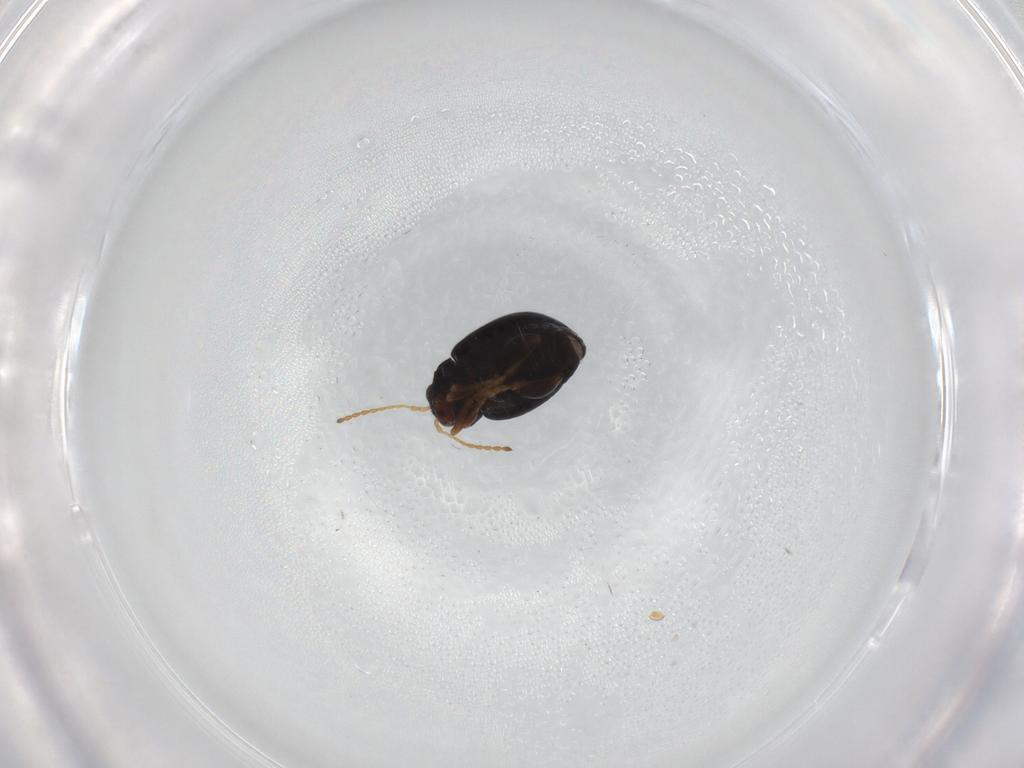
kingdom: Animalia
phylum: Arthropoda
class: Insecta
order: Coleoptera
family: Chrysomelidae
